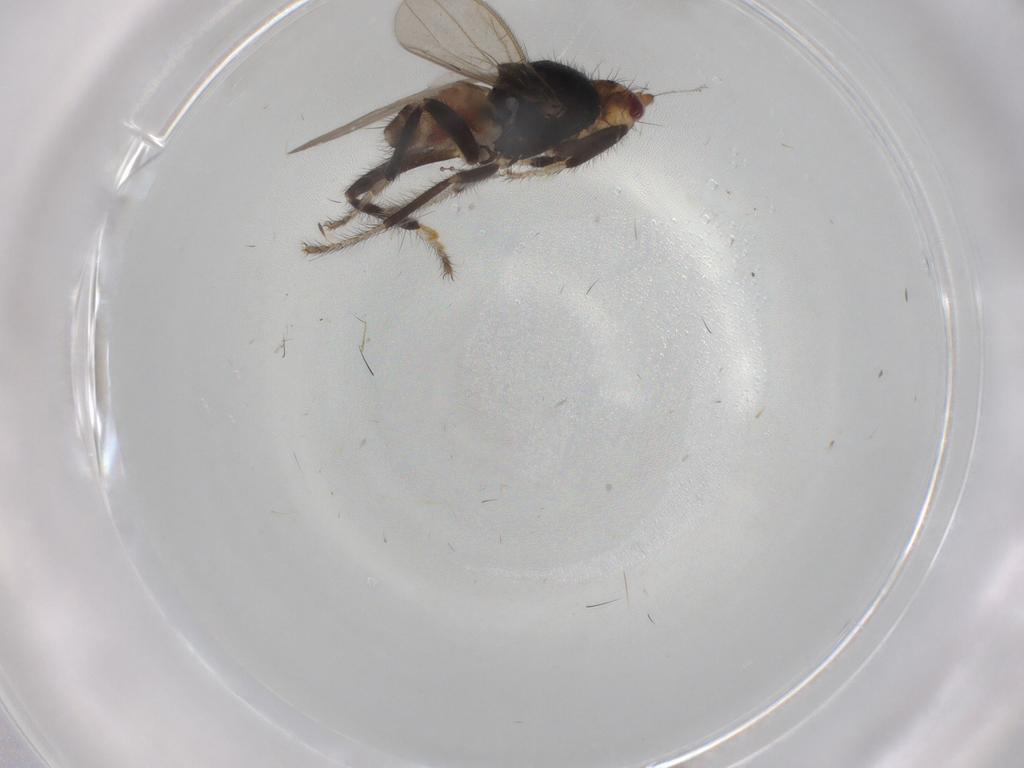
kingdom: Animalia
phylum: Arthropoda
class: Insecta
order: Diptera
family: Sphaeroceridae
